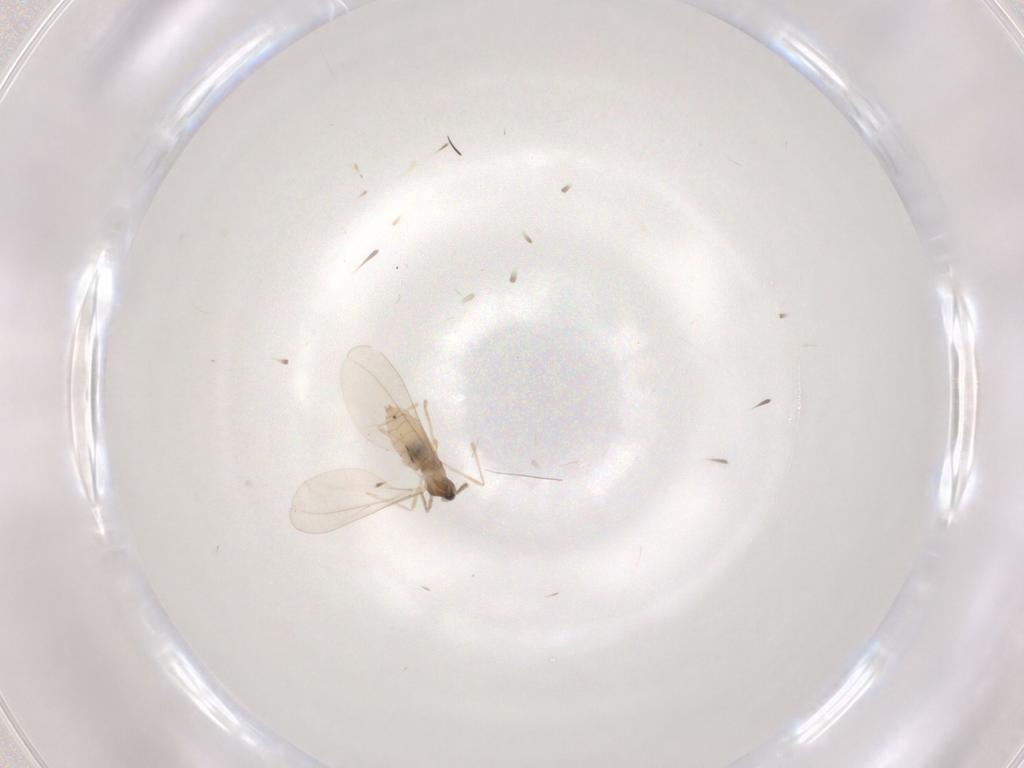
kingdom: Animalia
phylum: Arthropoda
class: Insecta
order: Diptera
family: Cecidomyiidae
